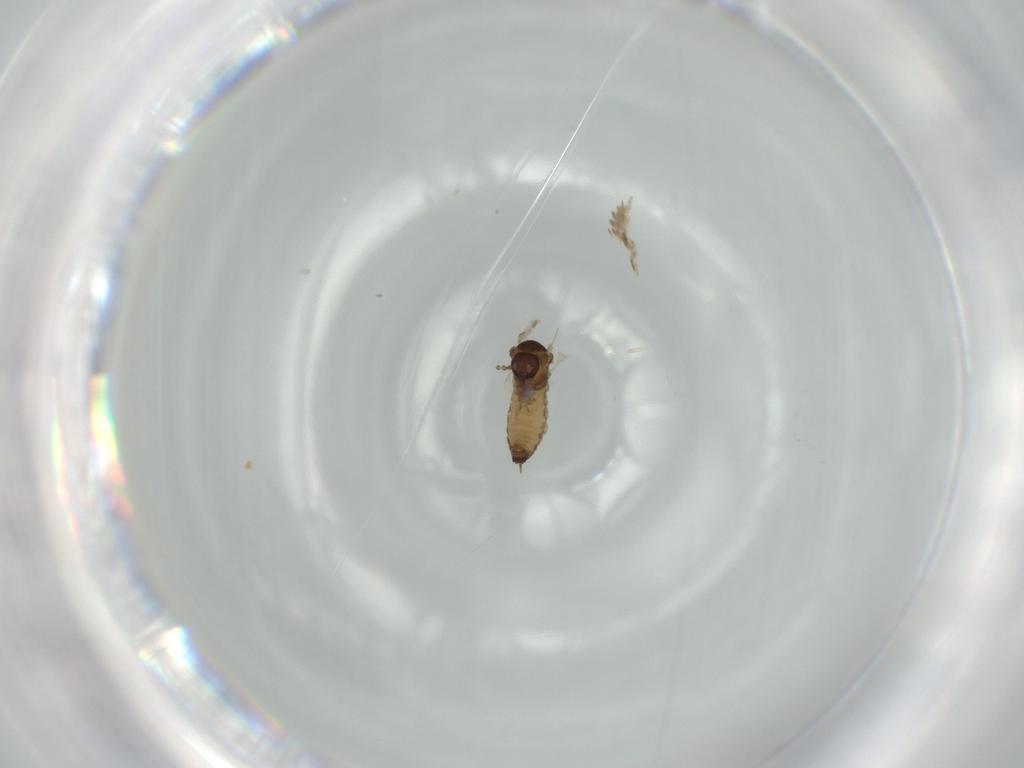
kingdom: Animalia
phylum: Arthropoda
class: Insecta
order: Diptera
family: Psychodidae
